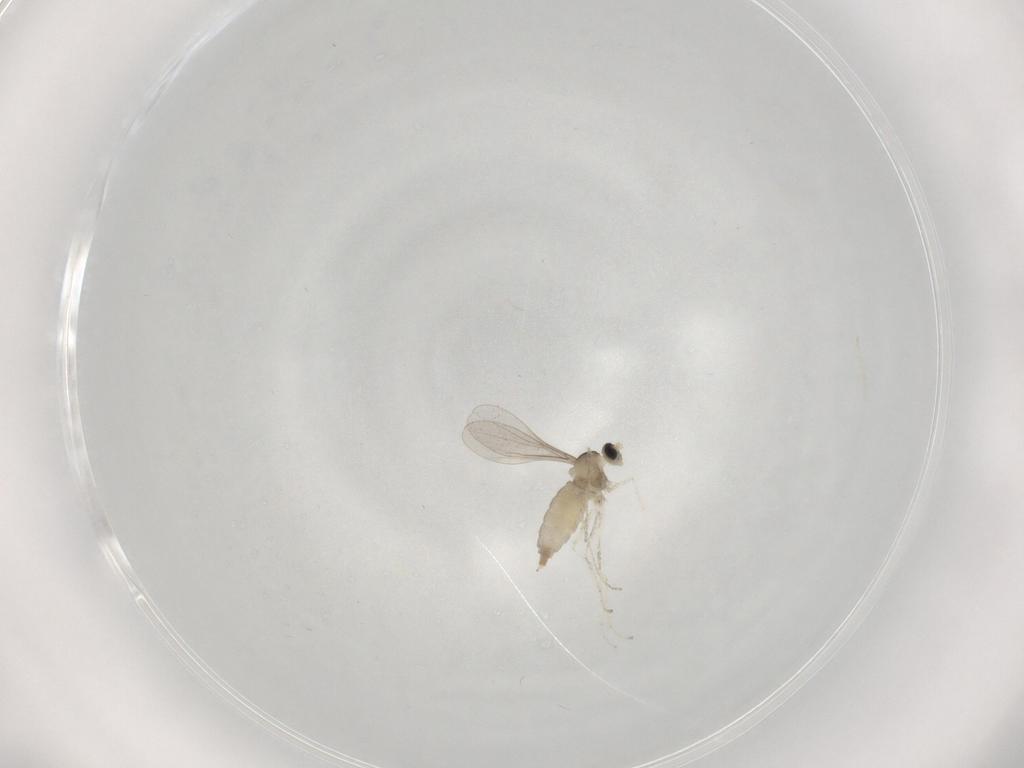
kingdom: Animalia
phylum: Arthropoda
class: Insecta
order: Diptera
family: Cecidomyiidae
